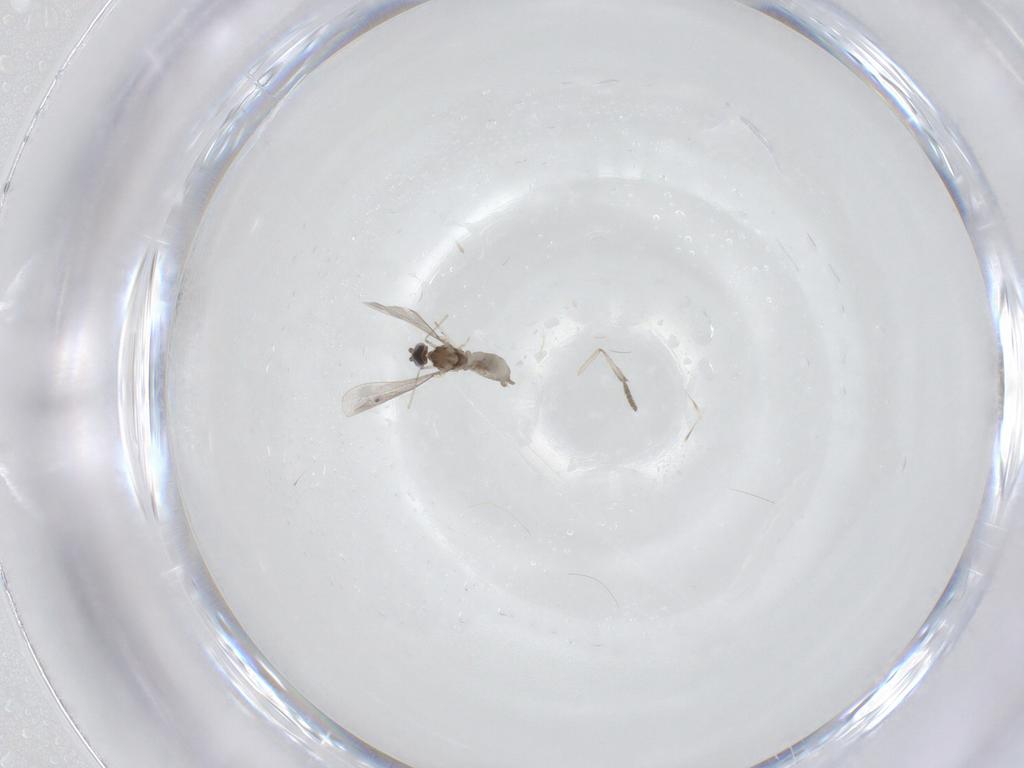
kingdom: Animalia
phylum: Arthropoda
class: Insecta
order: Diptera
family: Cecidomyiidae
